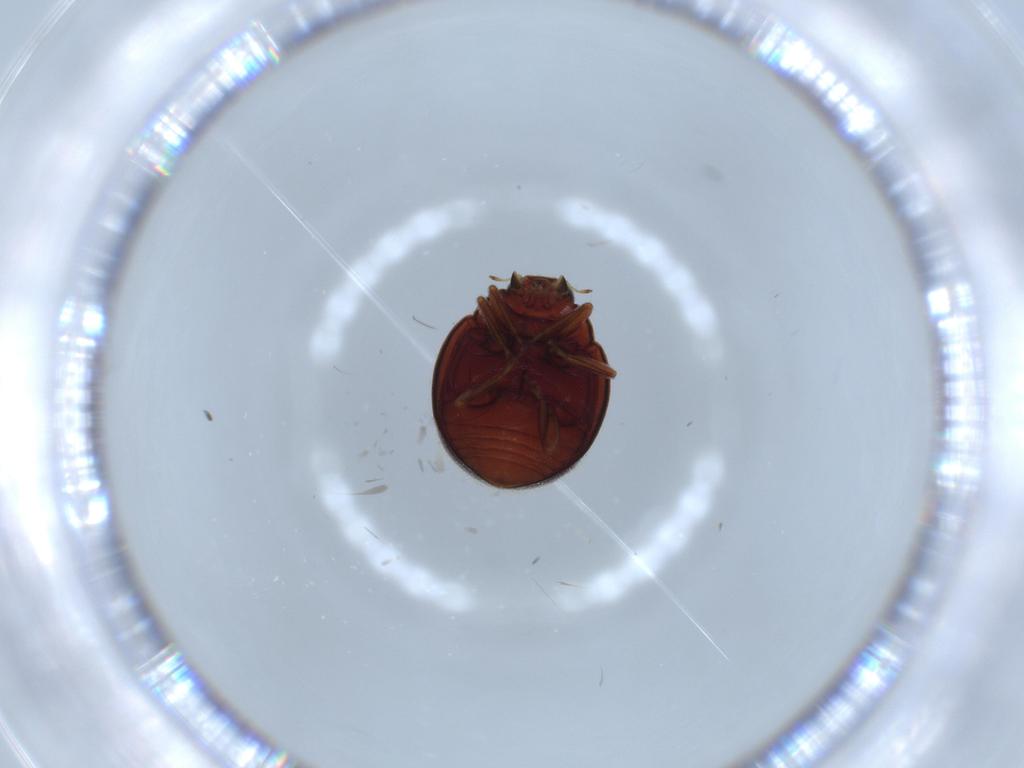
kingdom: Animalia
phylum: Arthropoda
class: Insecta
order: Coleoptera
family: Coccinellidae
